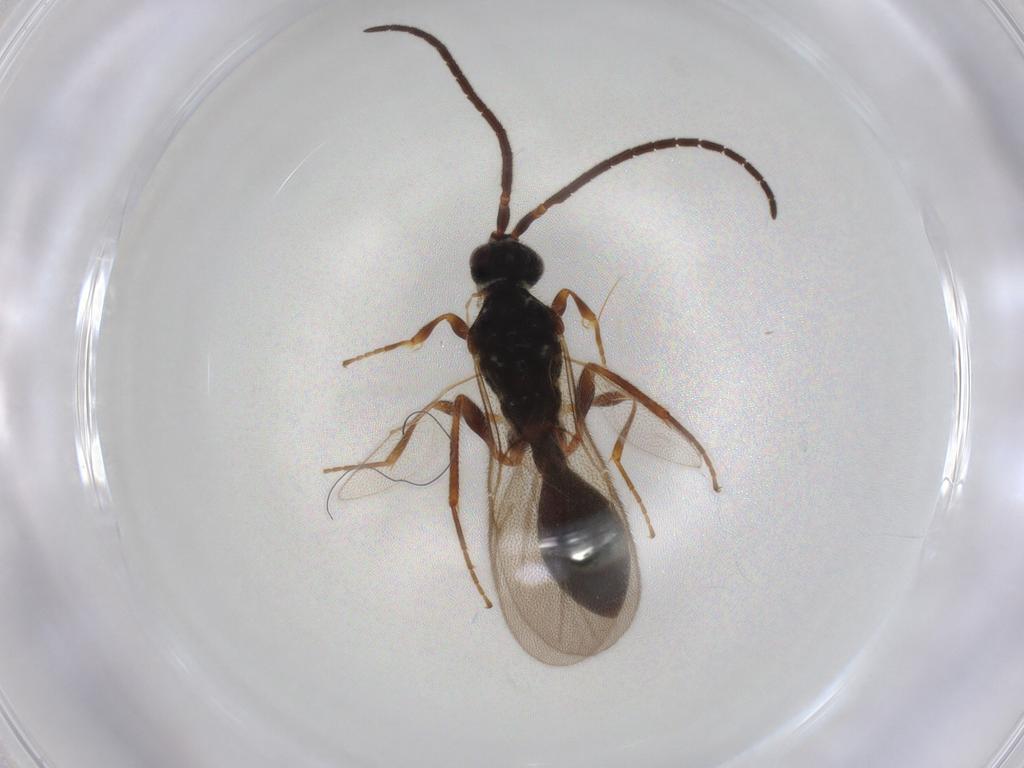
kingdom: Animalia
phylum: Arthropoda
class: Insecta
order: Hymenoptera
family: Diapriidae
